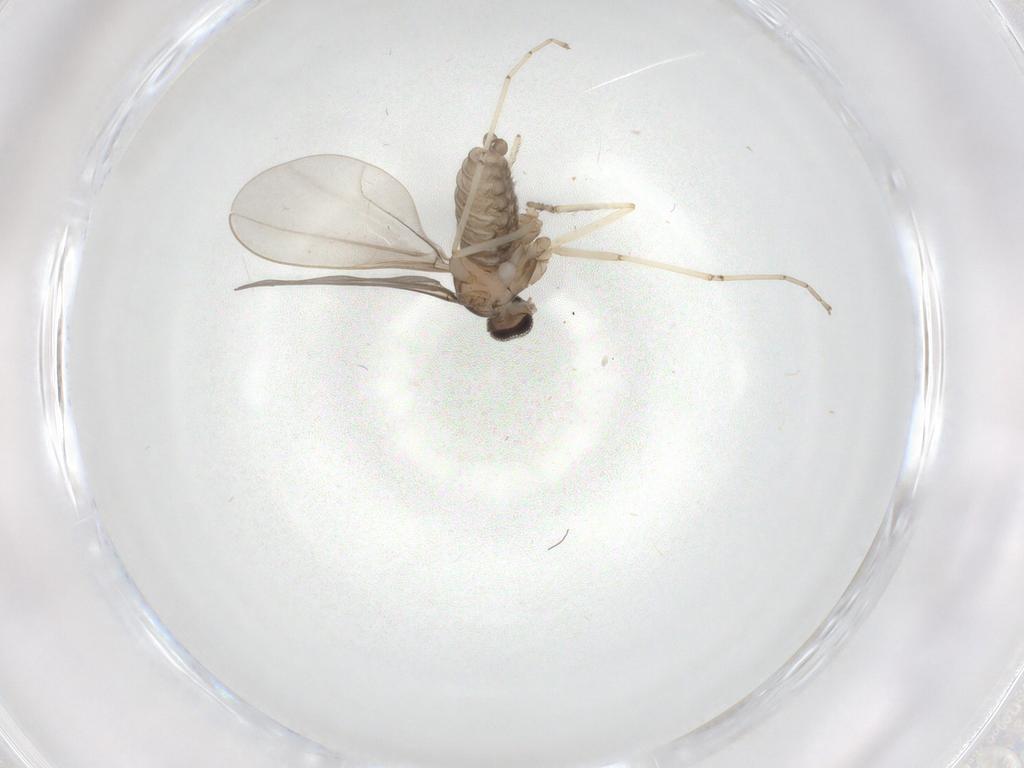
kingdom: Animalia
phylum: Arthropoda
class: Insecta
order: Diptera
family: Cecidomyiidae
